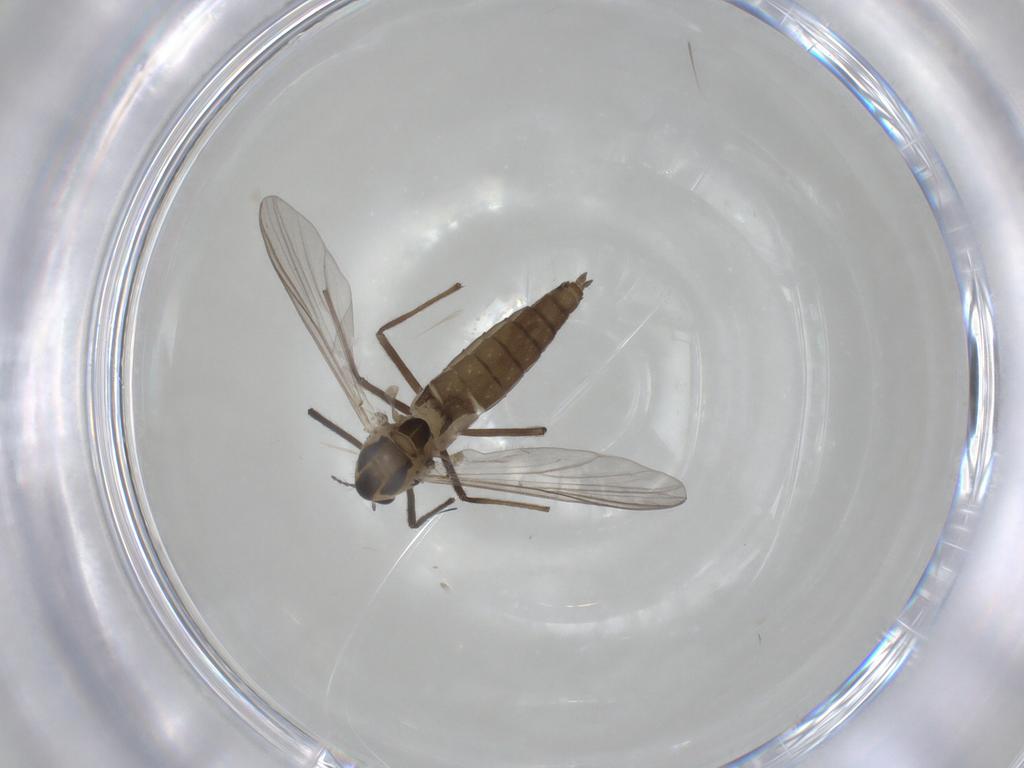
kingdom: Animalia
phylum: Arthropoda
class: Insecta
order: Diptera
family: Chironomidae
